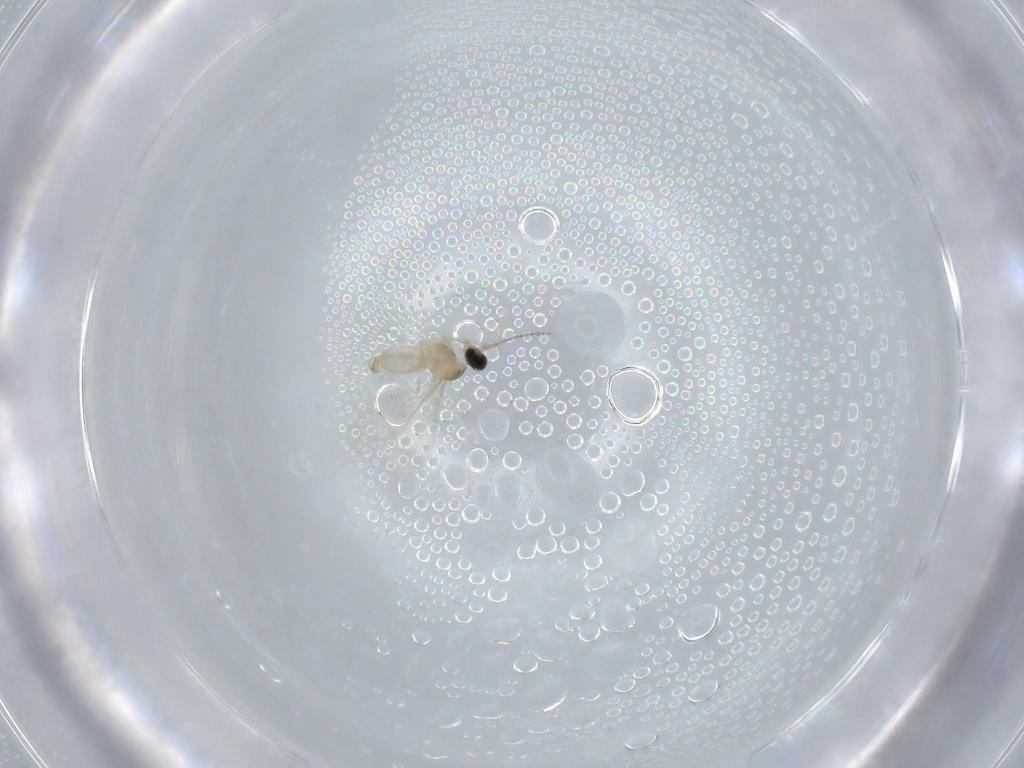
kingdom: Animalia
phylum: Arthropoda
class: Insecta
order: Diptera
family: Cecidomyiidae
